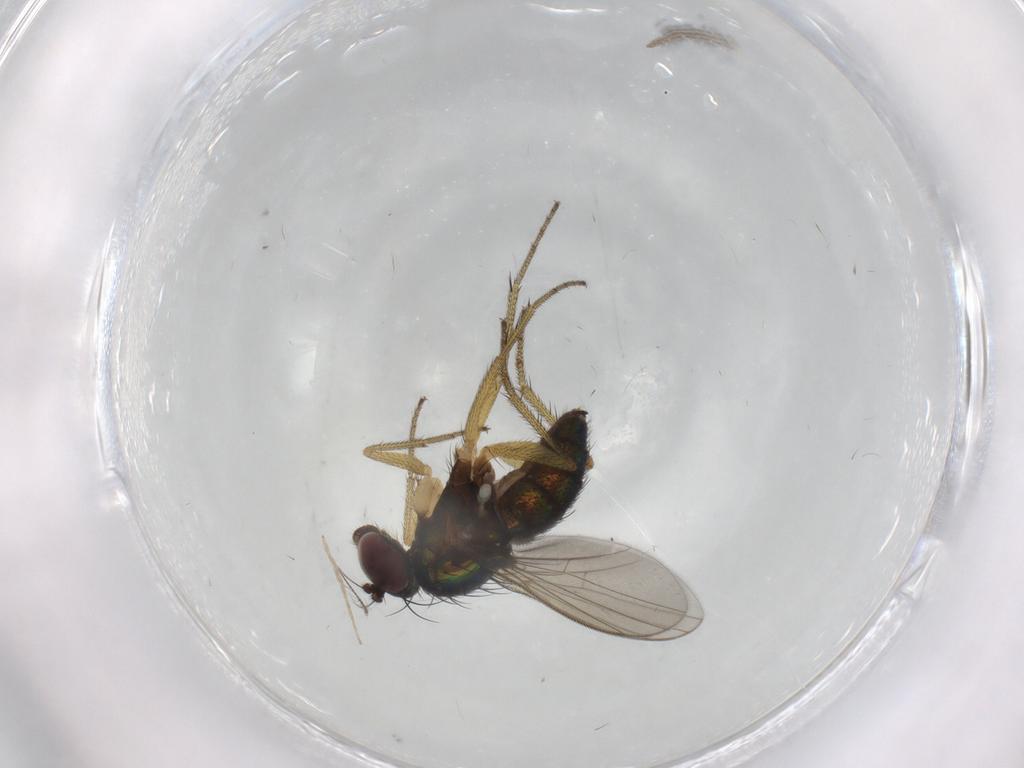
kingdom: Animalia
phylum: Arthropoda
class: Insecta
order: Diptera
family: Dolichopodidae
